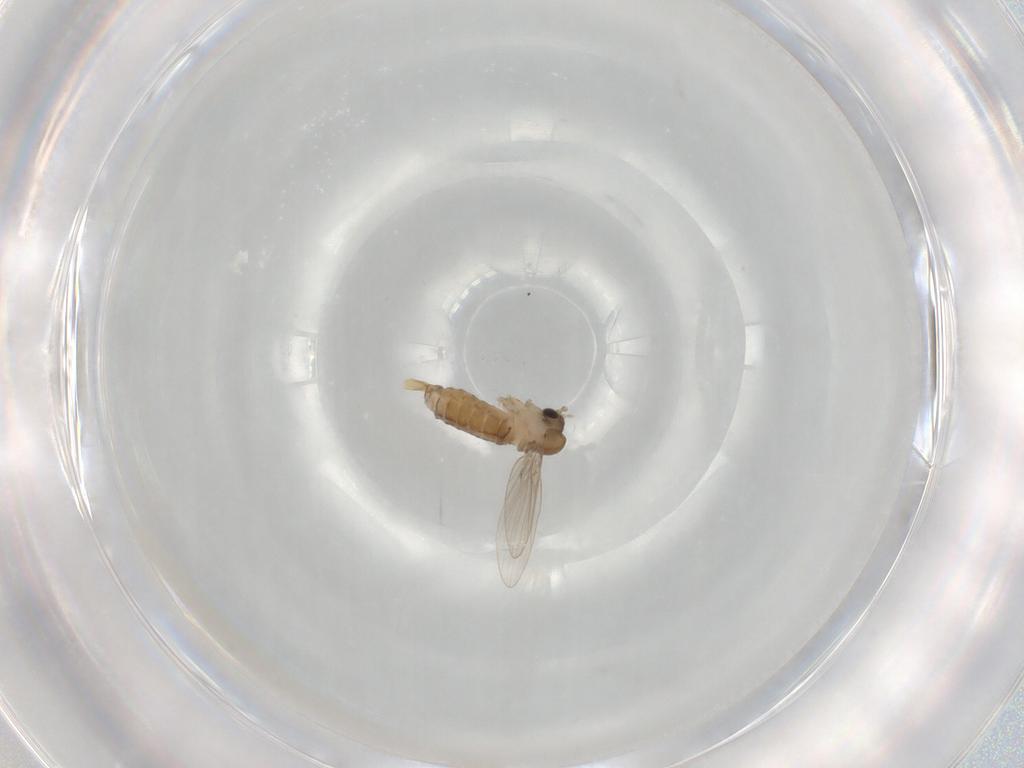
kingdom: Animalia
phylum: Arthropoda
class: Insecta
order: Diptera
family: Psychodidae
